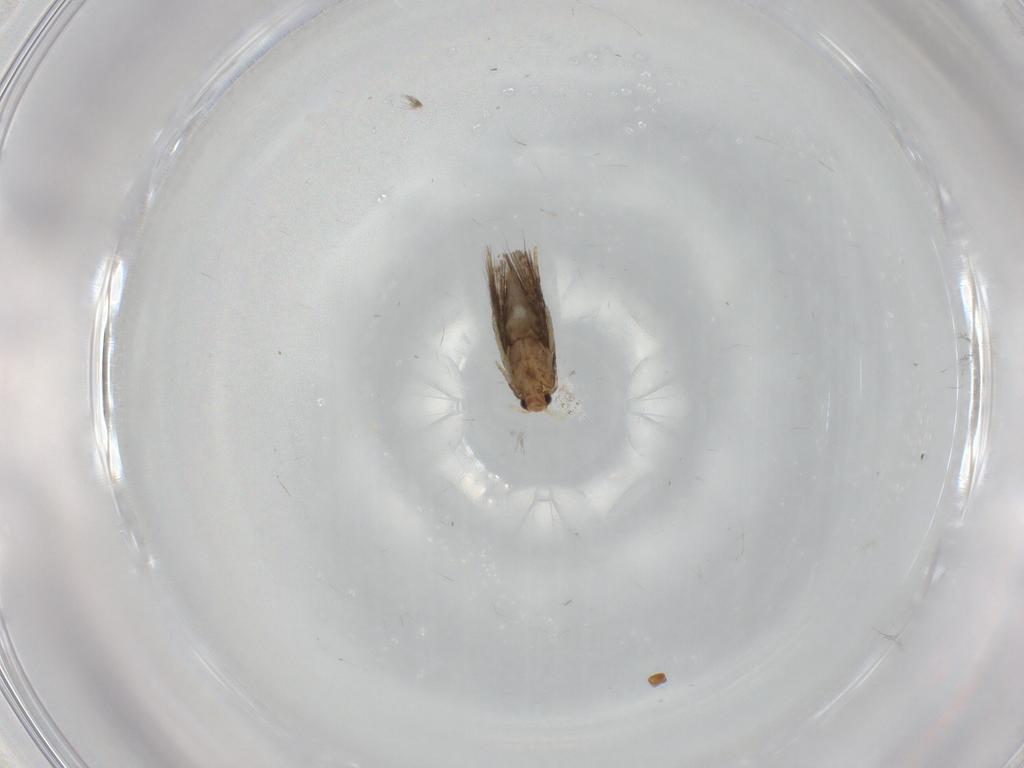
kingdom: Animalia
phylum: Arthropoda
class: Insecta
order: Lepidoptera
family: Nepticulidae
